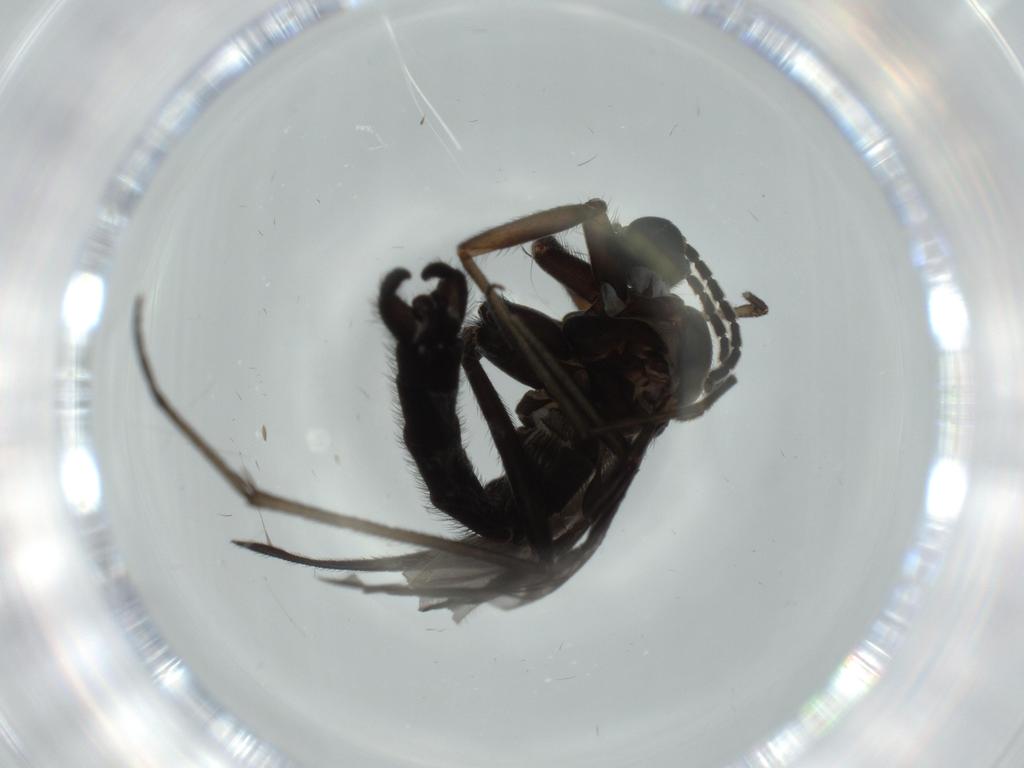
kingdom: Animalia
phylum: Arthropoda
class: Insecta
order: Diptera
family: Sciaridae
